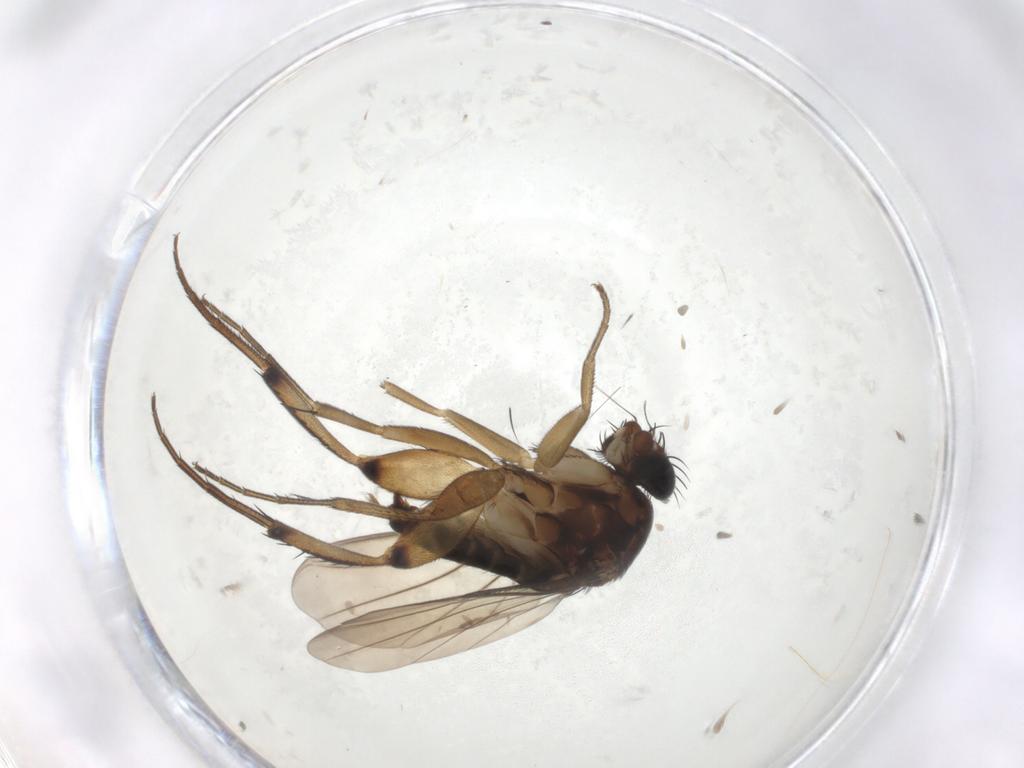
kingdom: Animalia
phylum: Arthropoda
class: Insecta
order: Diptera
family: Phoridae
